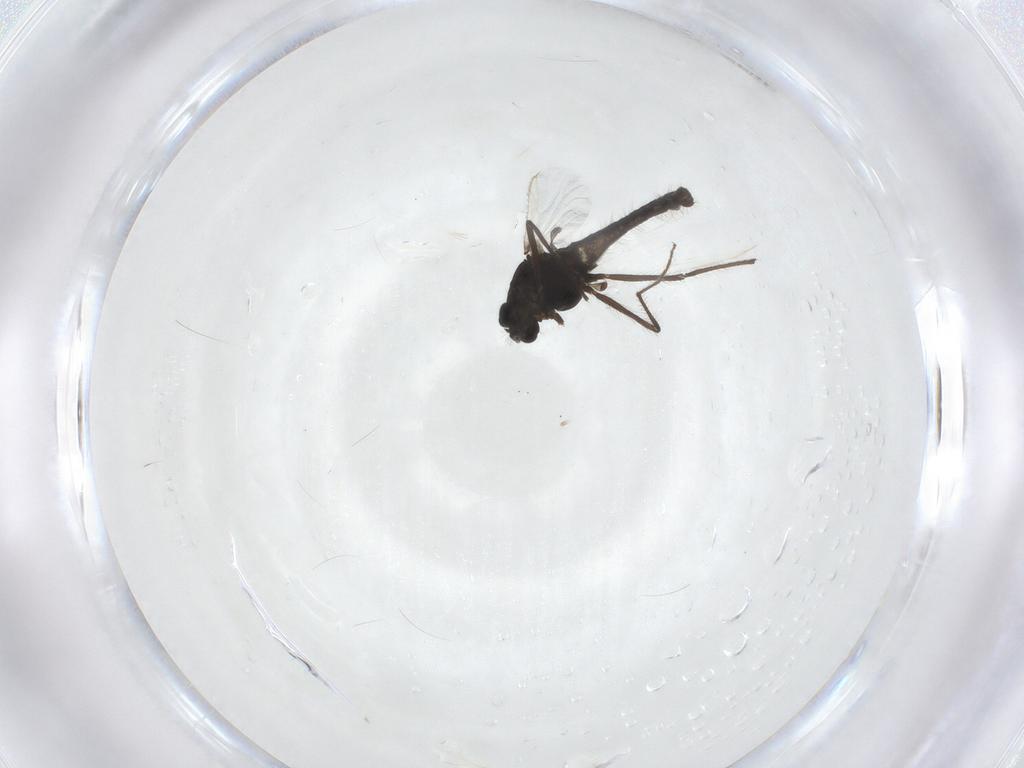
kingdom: Animalia
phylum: Arthropoda
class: Insecta
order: Diptera
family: Chironomidae
